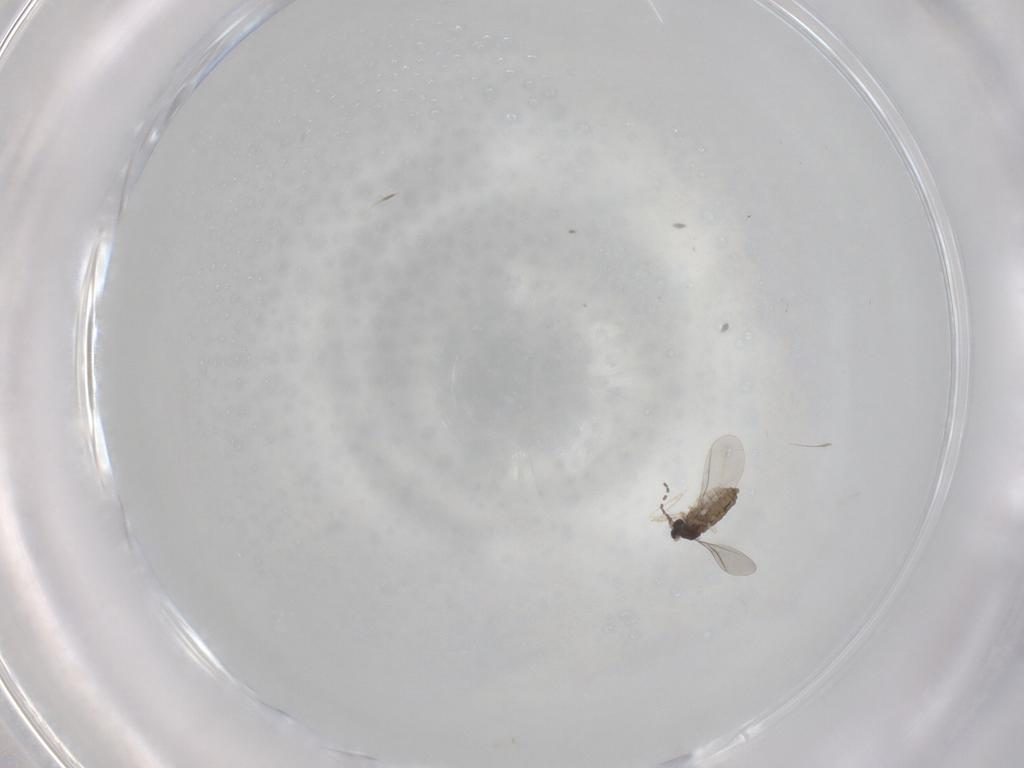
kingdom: Animalia
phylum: Arthropoda
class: Insecta
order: Diptera
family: Cecidomyiidae
